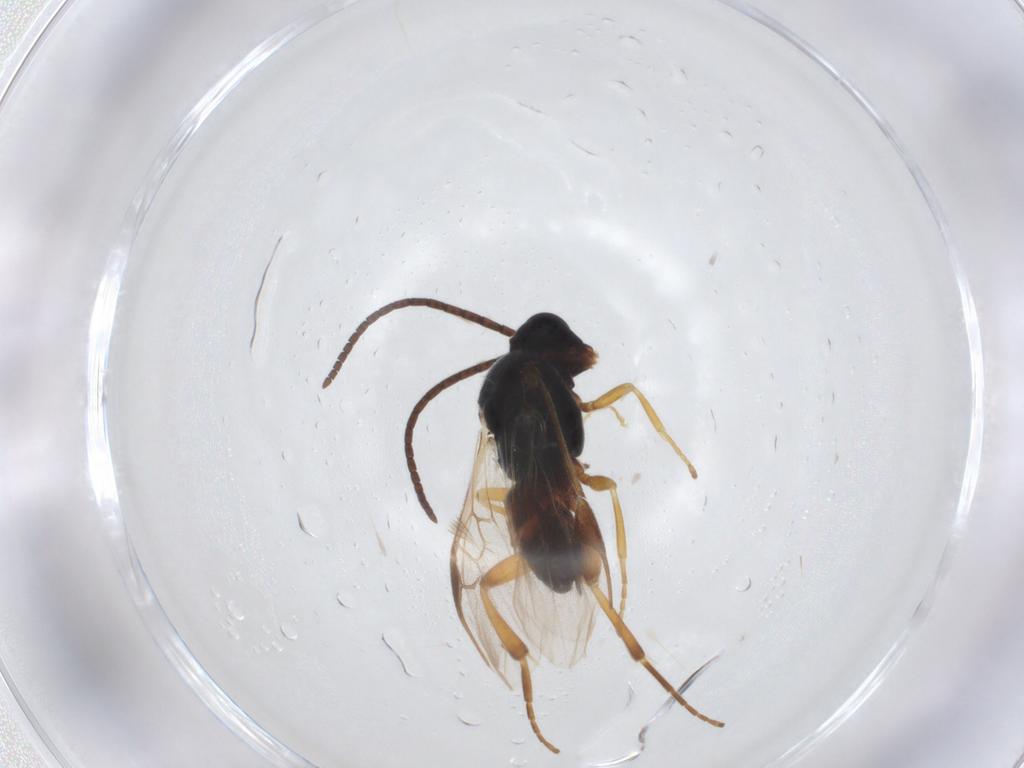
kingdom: Animalia
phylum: Arthropoda
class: Insecta
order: Hymenoptera
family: Braconidae
